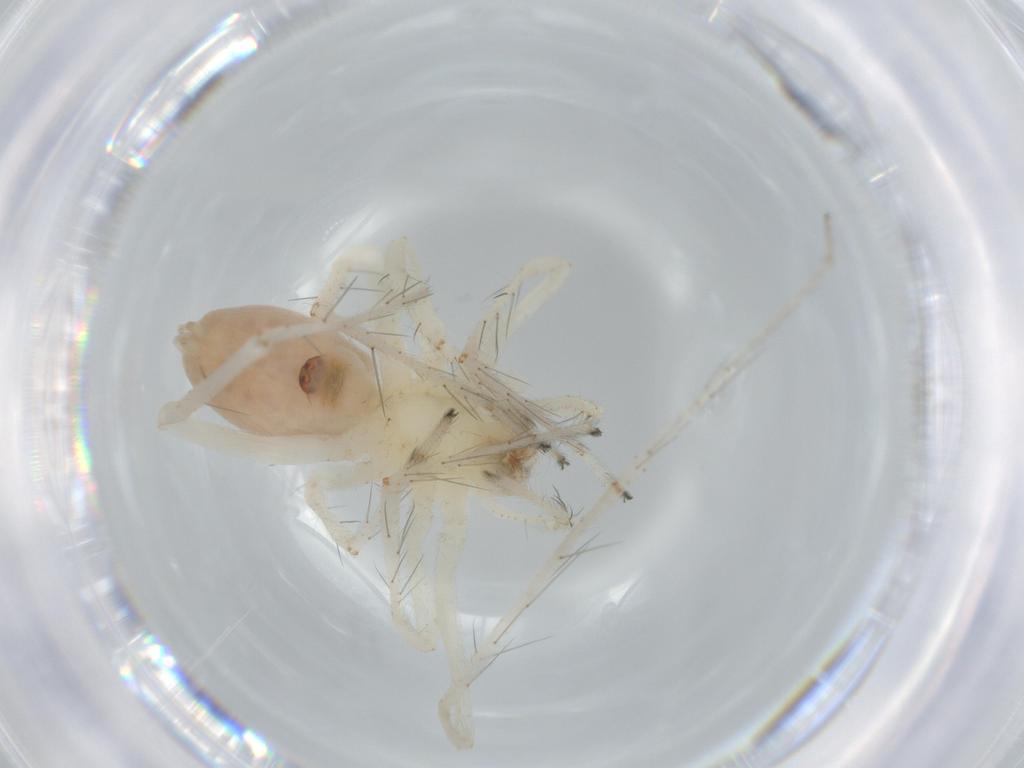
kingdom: Animalia
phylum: Arthropoda
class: Arachnida
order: Araneae
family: Anyphaenidae
